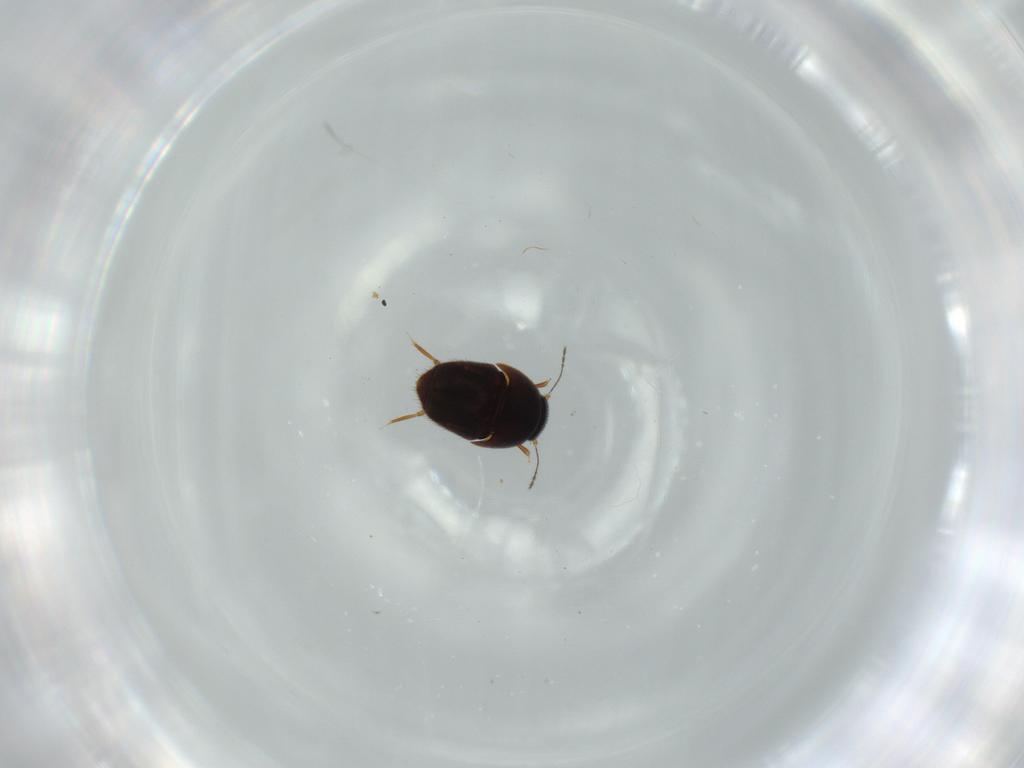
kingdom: Animalia
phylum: Arthropoda
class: Insecta
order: Coleoptera
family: Ptiliidae
